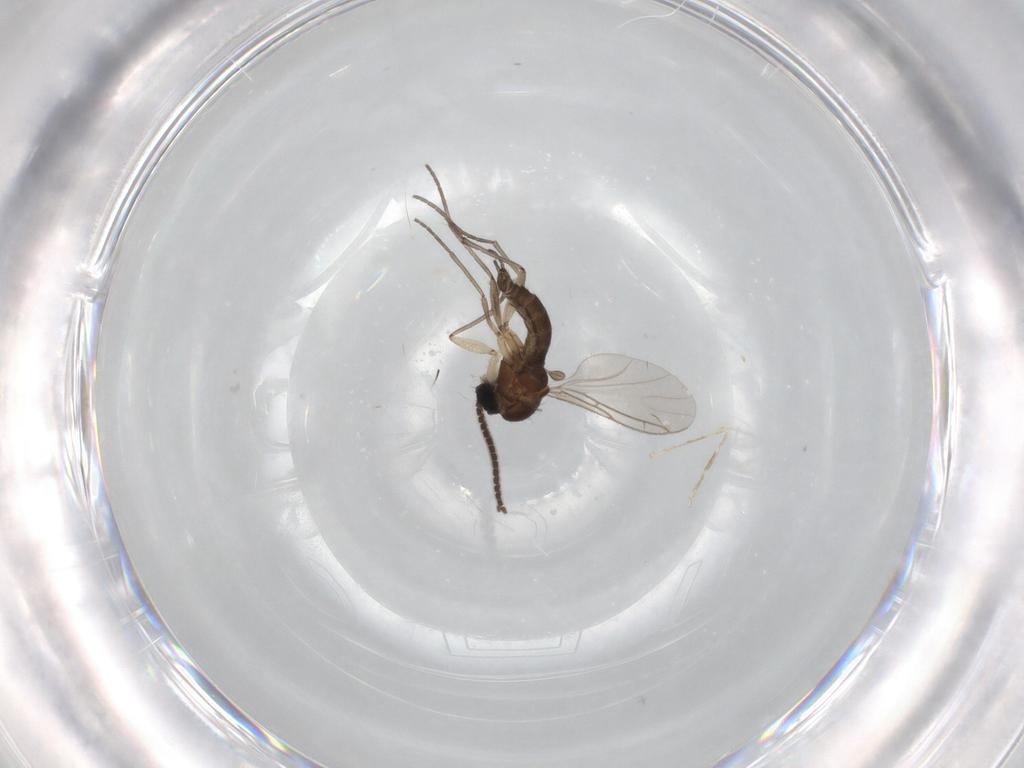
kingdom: Animalia
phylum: Arthropoda
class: Insecta
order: Diptera
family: Sciaridae
